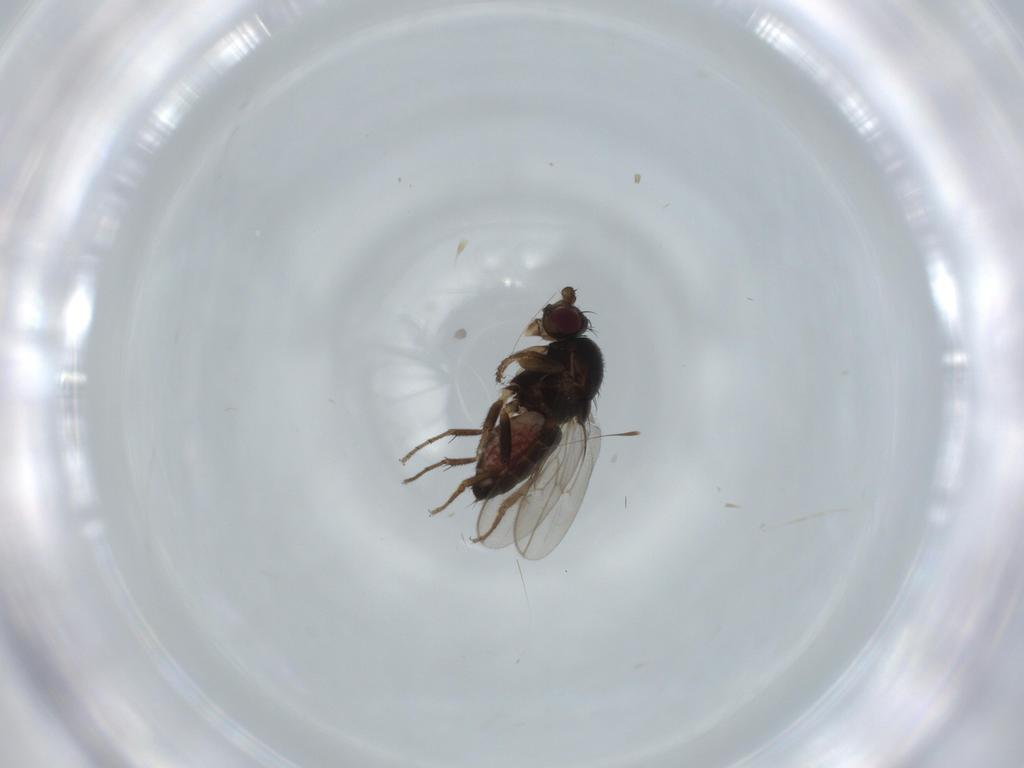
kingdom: Animalia
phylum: Arthropoda
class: Insecta
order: Diptera
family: Sphaeroceridae
